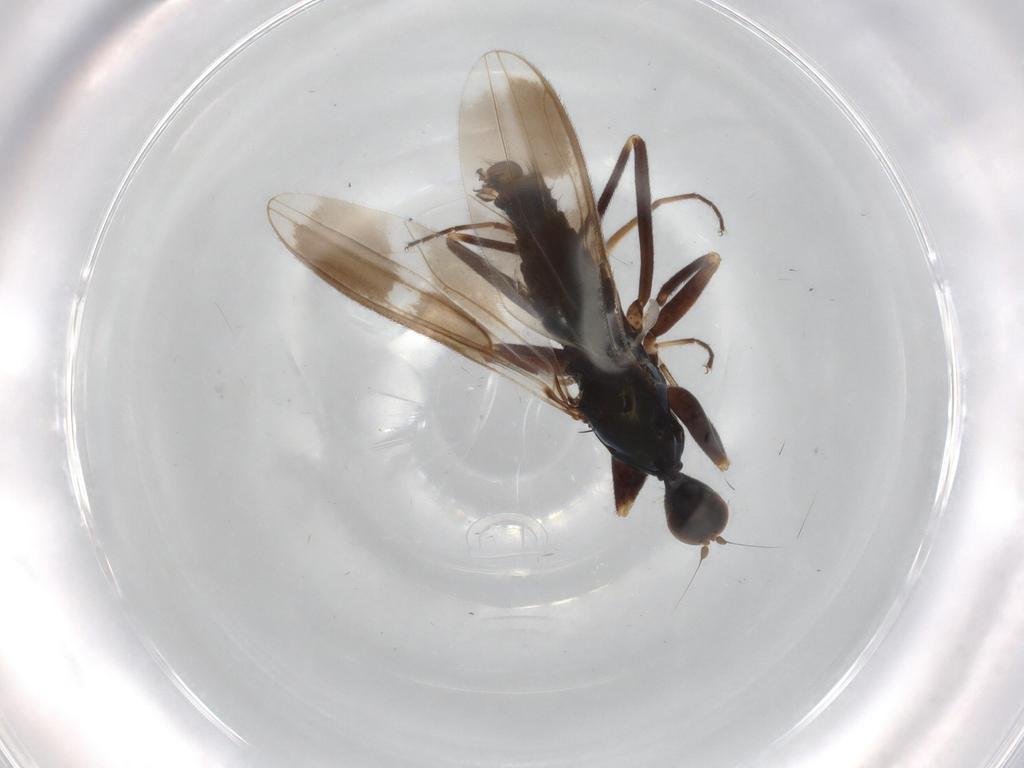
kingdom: Animalia
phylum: Arthropoda
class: Insecta
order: Diptera
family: Hybotidae
